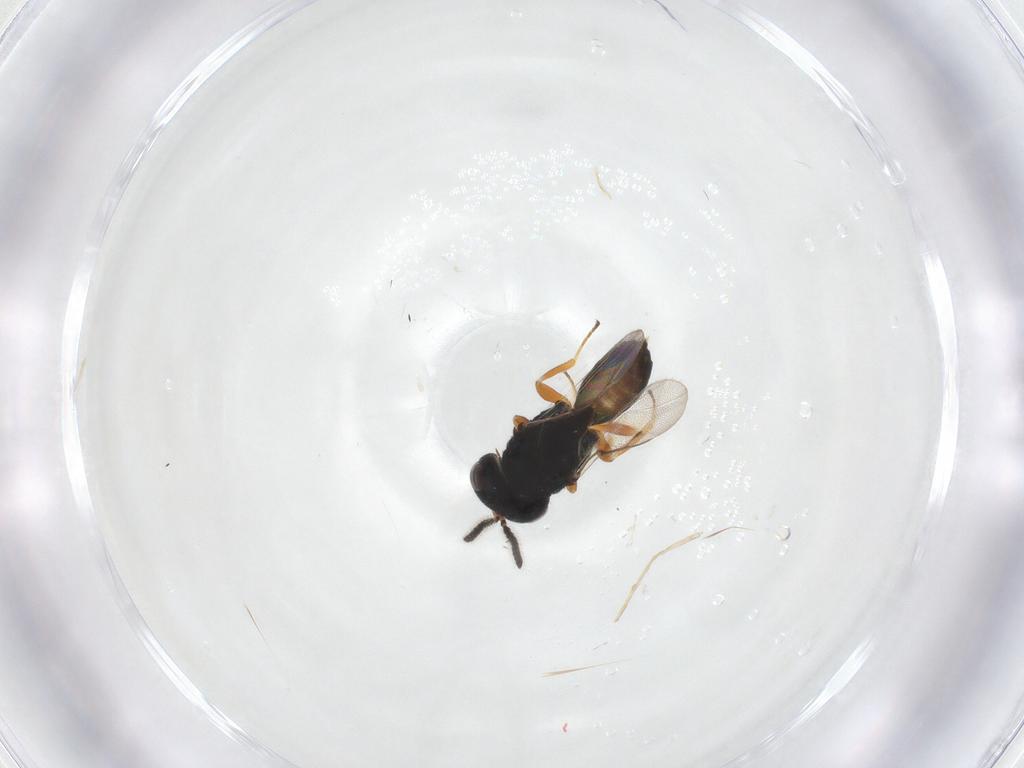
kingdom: Animalia
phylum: Arthropoda
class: Insecta
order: Hymenoptera
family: Pteromalidae
